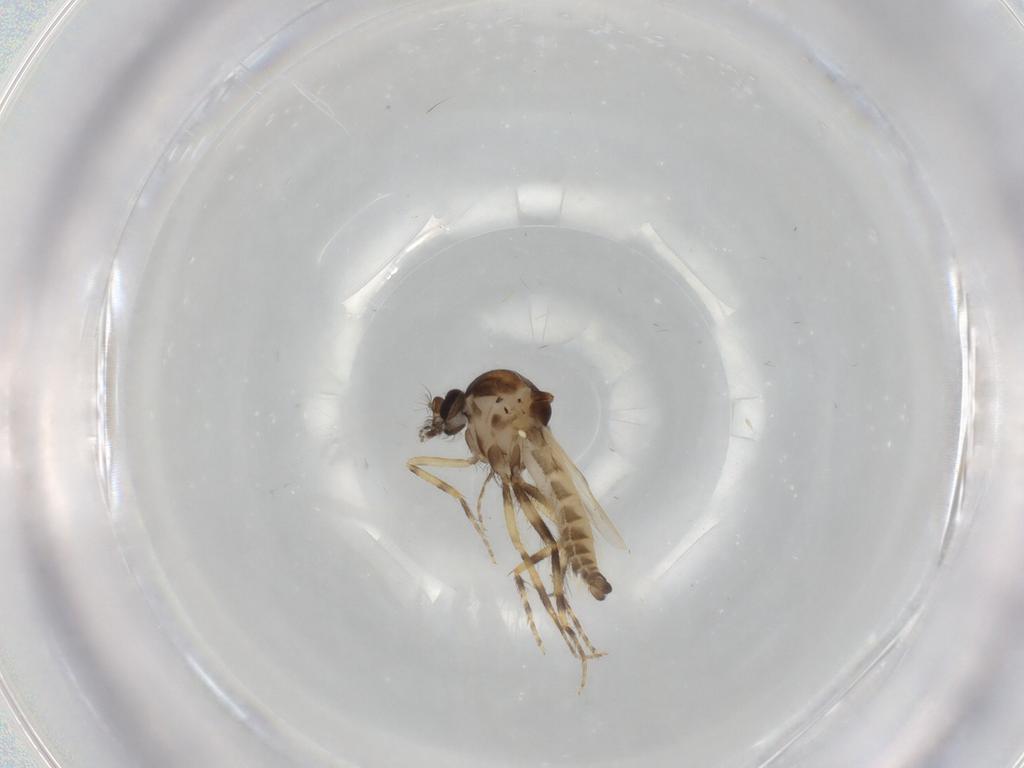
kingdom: Animalia
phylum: Arthropoda
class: Insecta
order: Diptera
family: Ceratopogonidae
